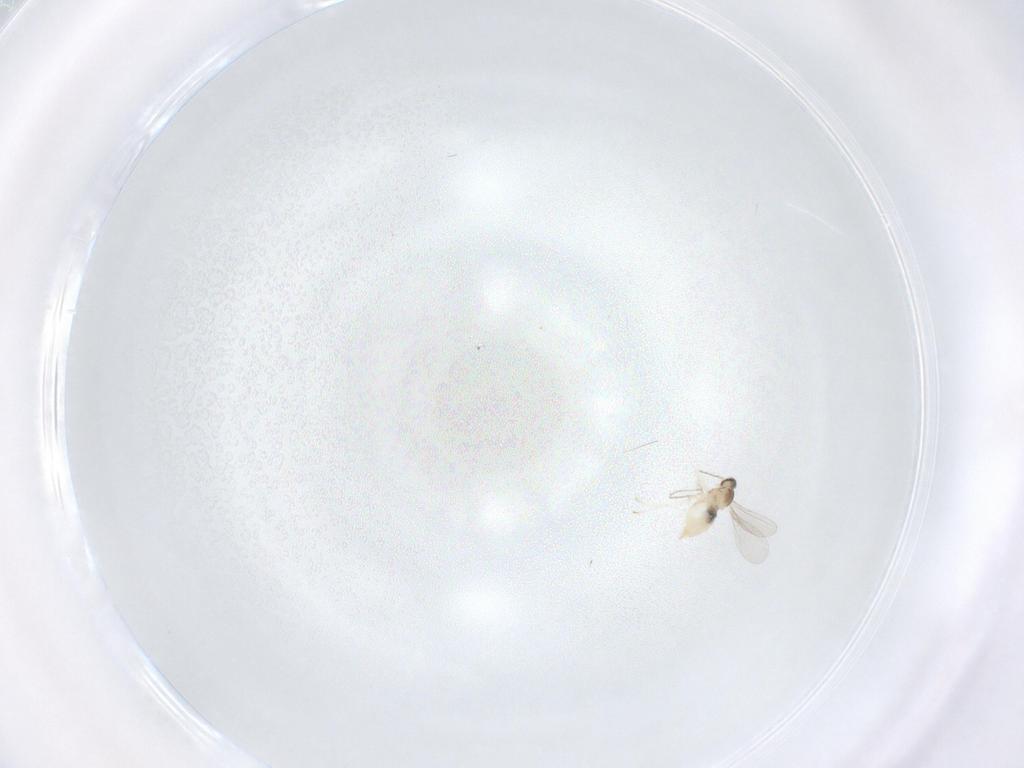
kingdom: Animalia
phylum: Arthropoda
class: Insecta
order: Diptera
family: Cecidomyiidae
